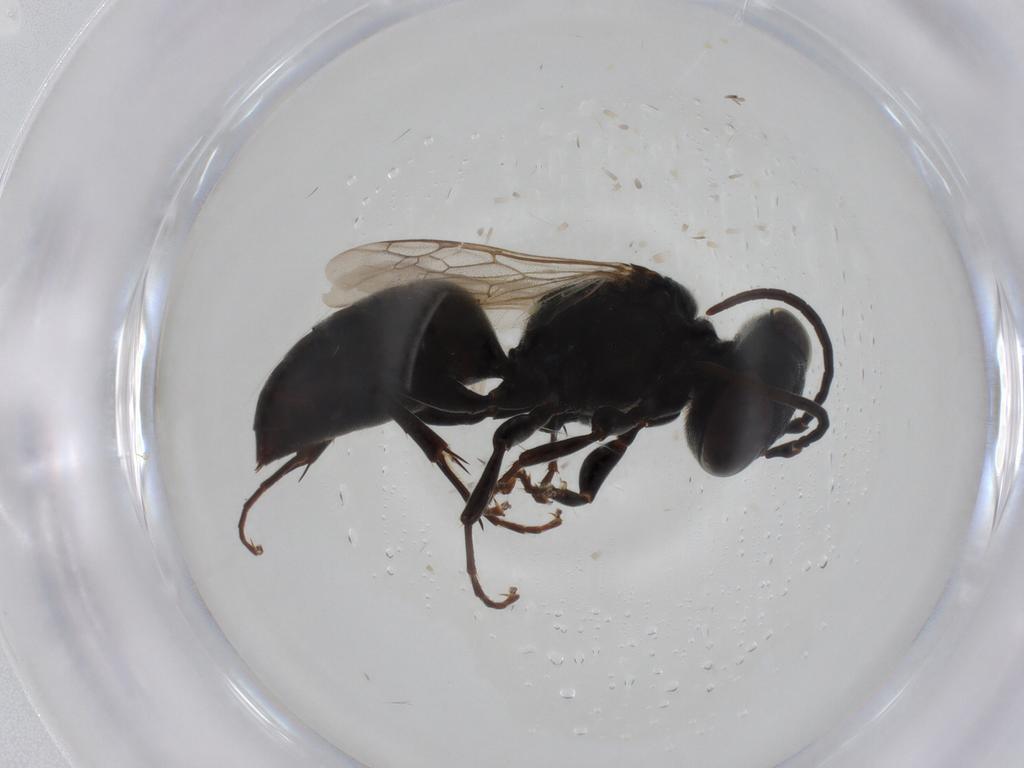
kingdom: Animalia
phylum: Arthropoda
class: Insecta
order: Hymenoptera
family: Crabronidae
